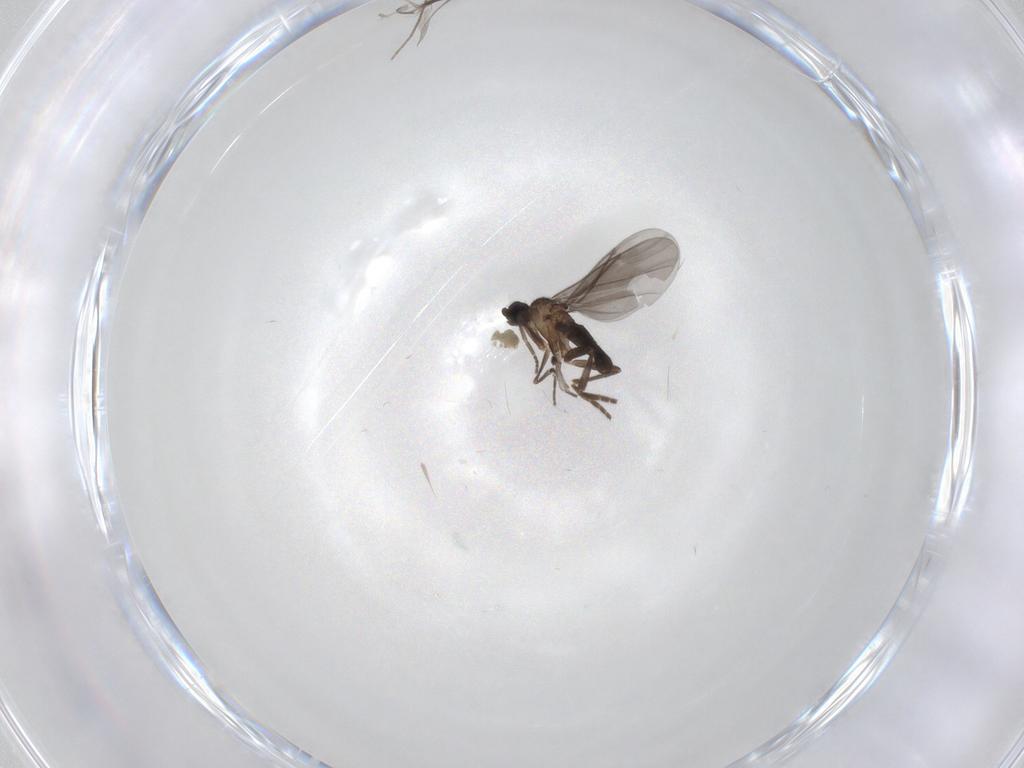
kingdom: Animalia
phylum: Arthropoda
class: Insecta
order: Diptera
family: Phoridae
